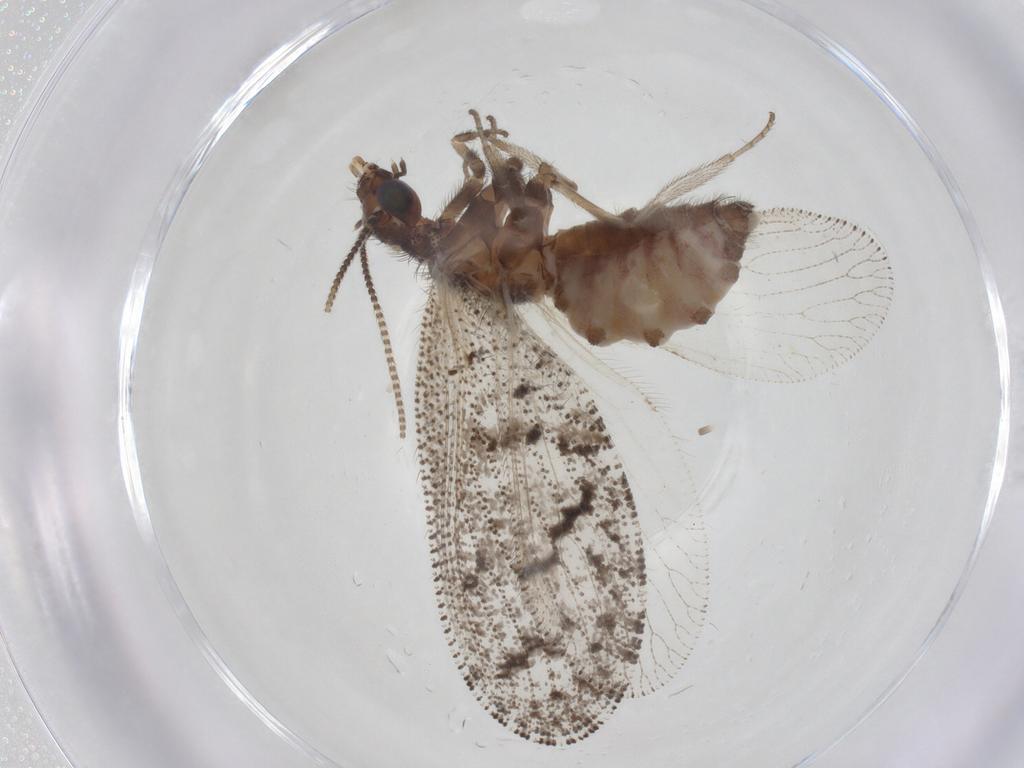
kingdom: Animalia
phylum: Arthropoda
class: Insecta
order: Neuroptera
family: Hemerobiidae
